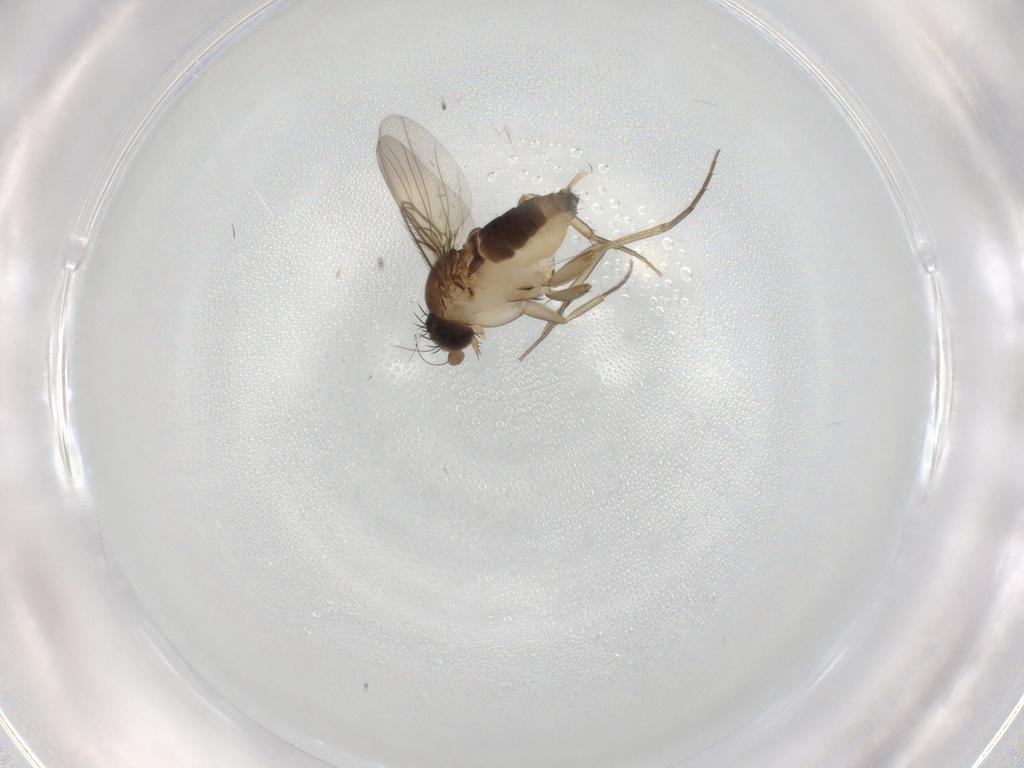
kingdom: Animalia
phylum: Arthropoda
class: Insecta
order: Diptera
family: Phoridae
